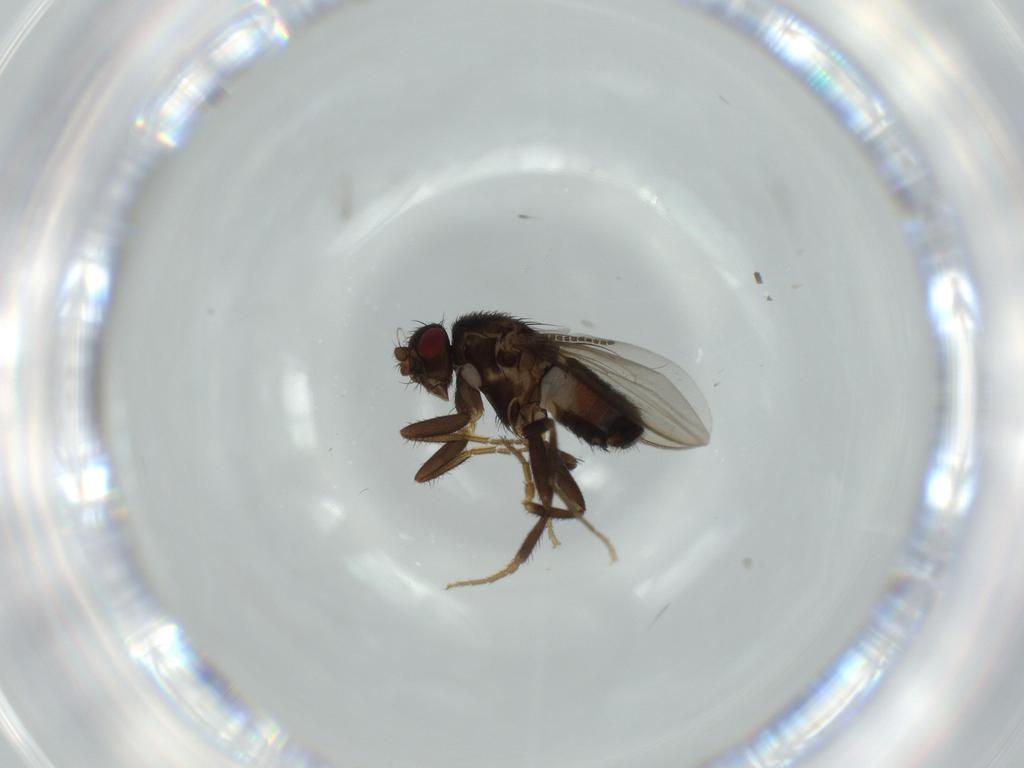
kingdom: Animalia
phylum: Arthropoda
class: Insecta
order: Diptera
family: Sphaeroceridae
